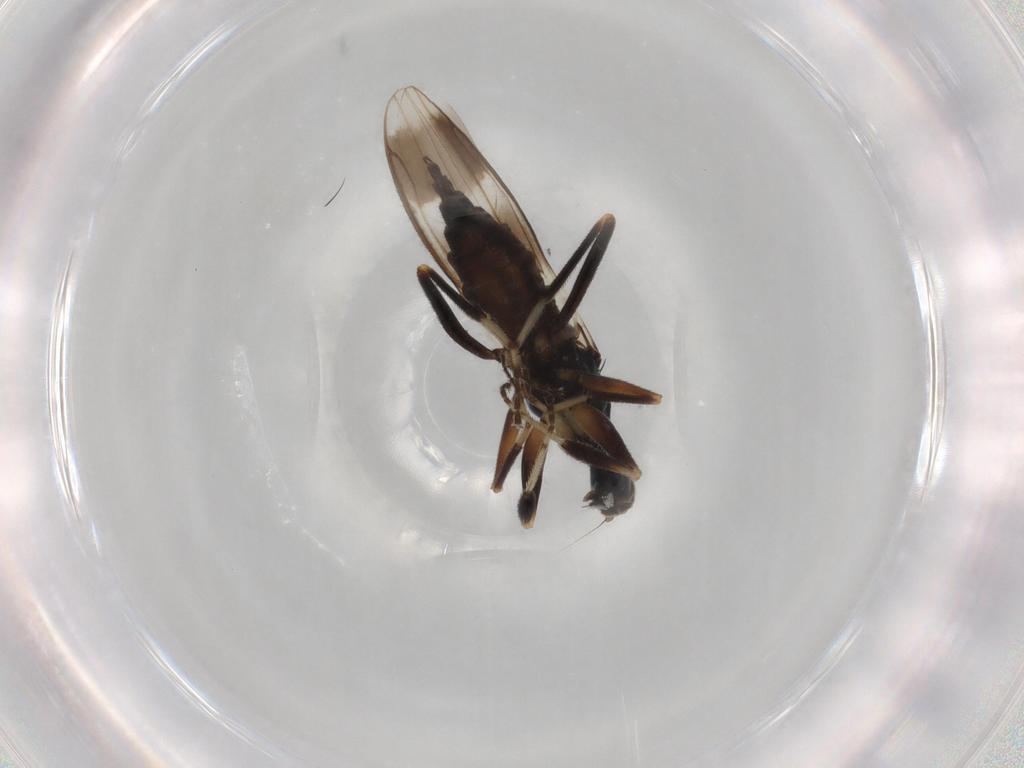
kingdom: Animalia
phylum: Arthropoda
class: Insecta
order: Diptera
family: Hybotidae
